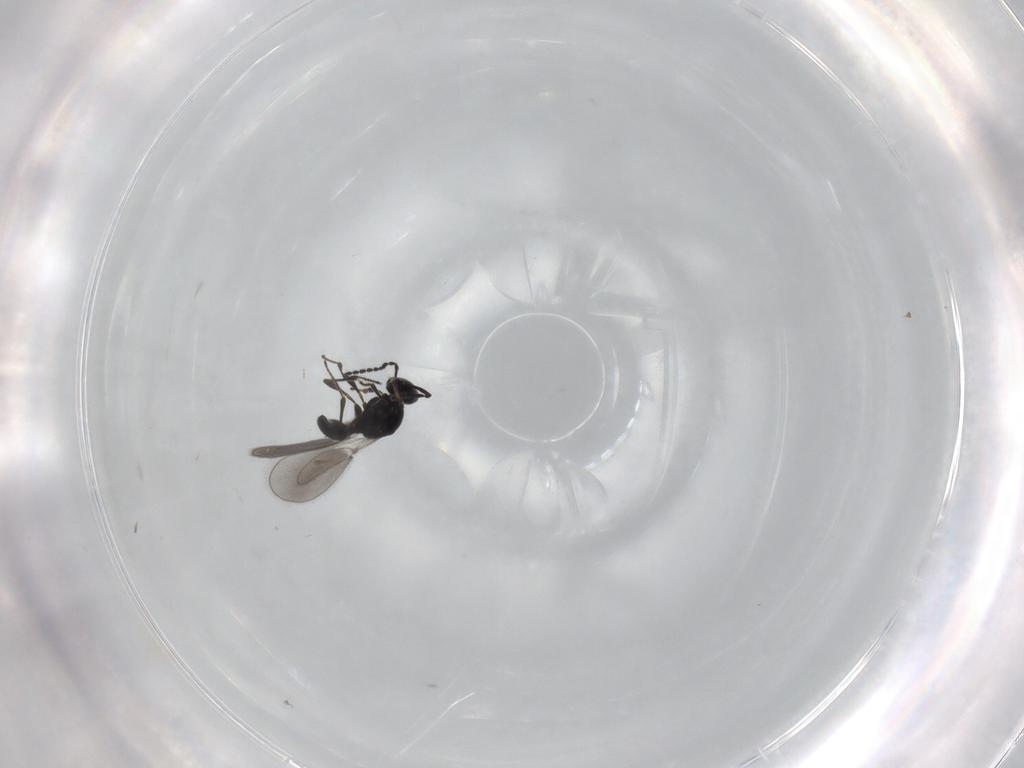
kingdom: Animalia
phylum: Arthropoda
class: Insecta
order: Hymenoptera
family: Platygastridae
